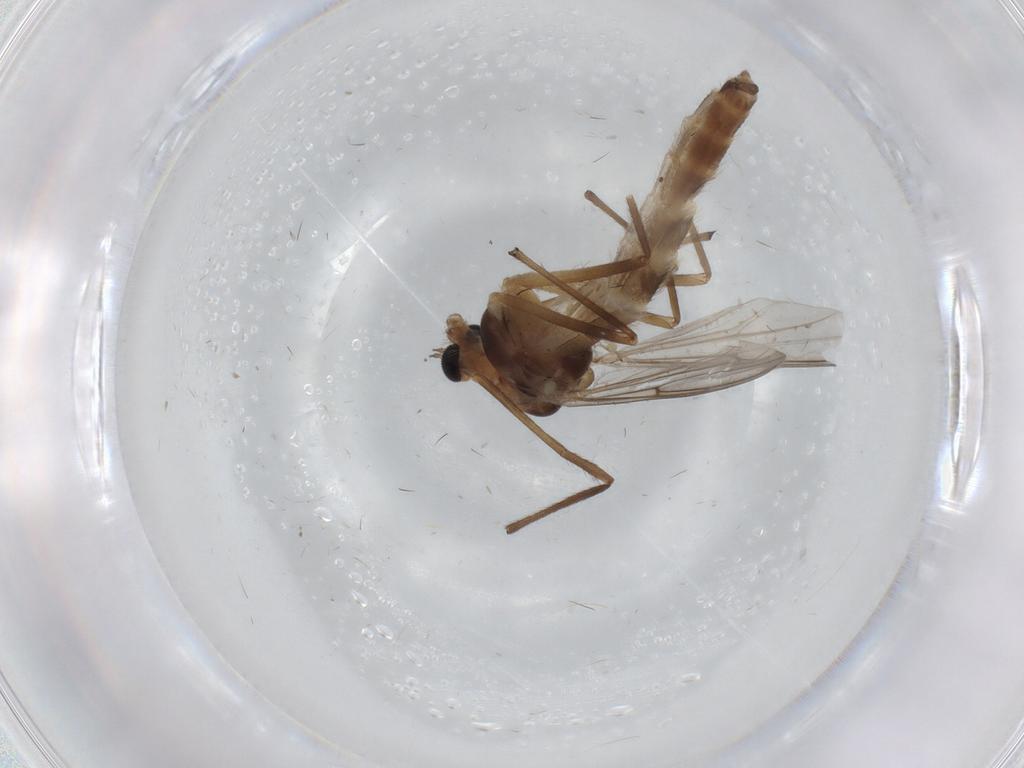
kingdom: Animalia
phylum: Arthropoda
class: Insecta
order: Diptera
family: Chironomidae
